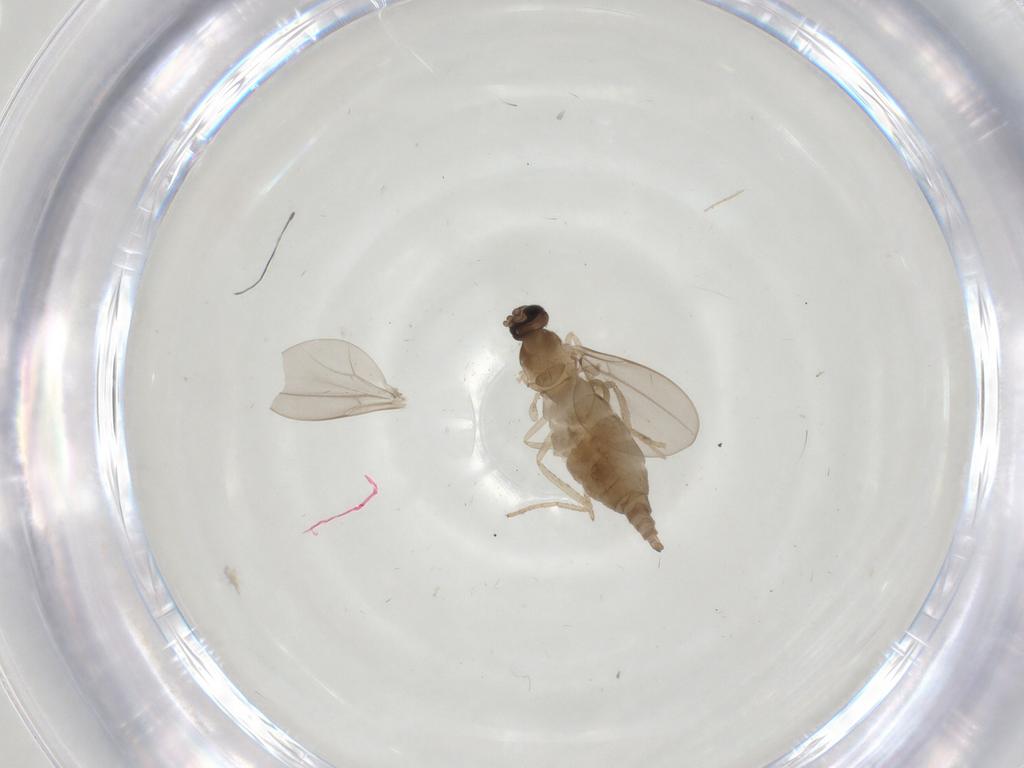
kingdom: Animalia
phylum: Arthropoda
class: Insecta
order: Diptera
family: Cecidomyiidae
